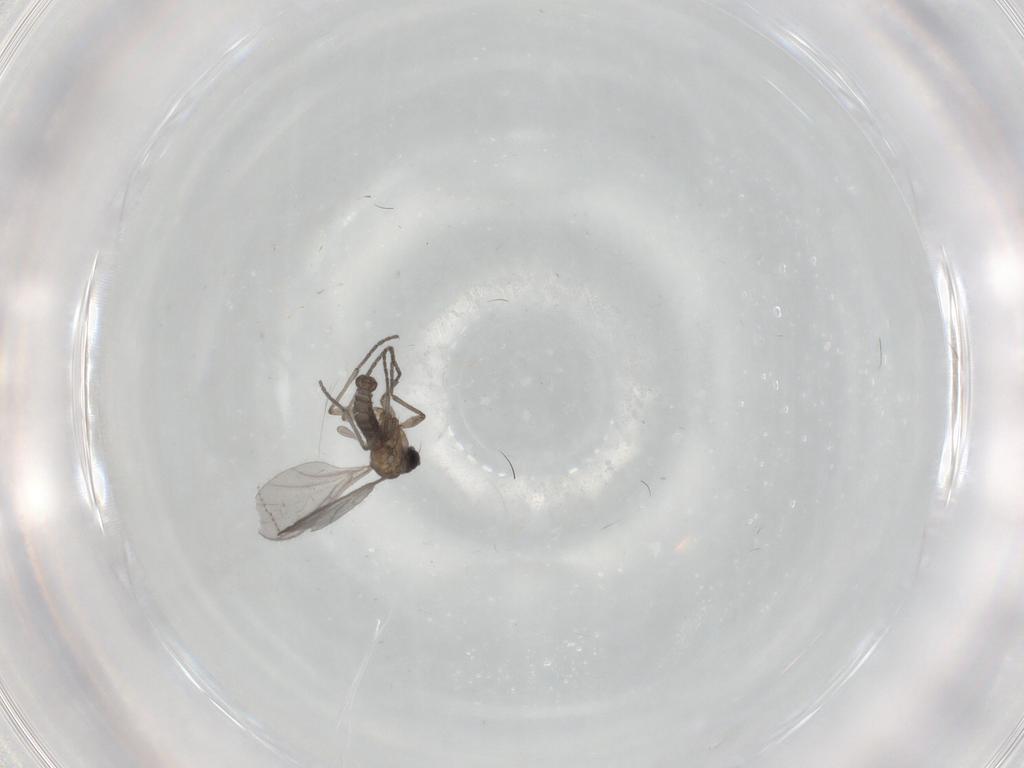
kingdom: Animalia
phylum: Arthropoda
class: Insecta
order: Diptera
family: Sciaridae
